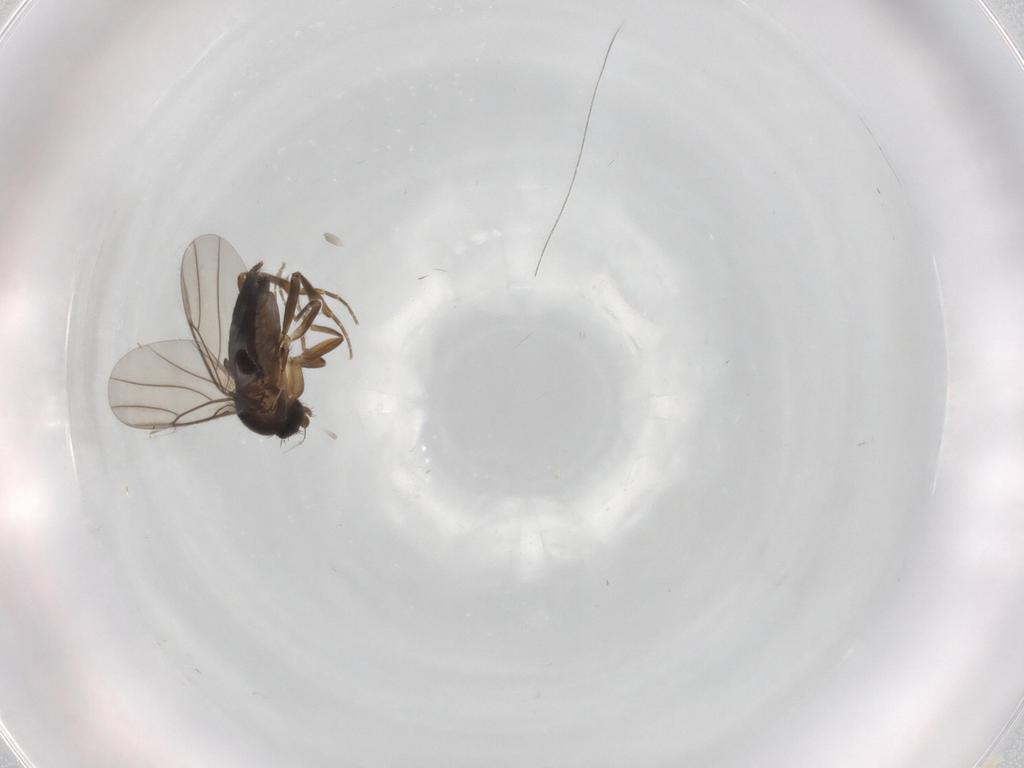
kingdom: Animalia
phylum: Arthropoda
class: Insecta
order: Diptera
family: Phoridae
